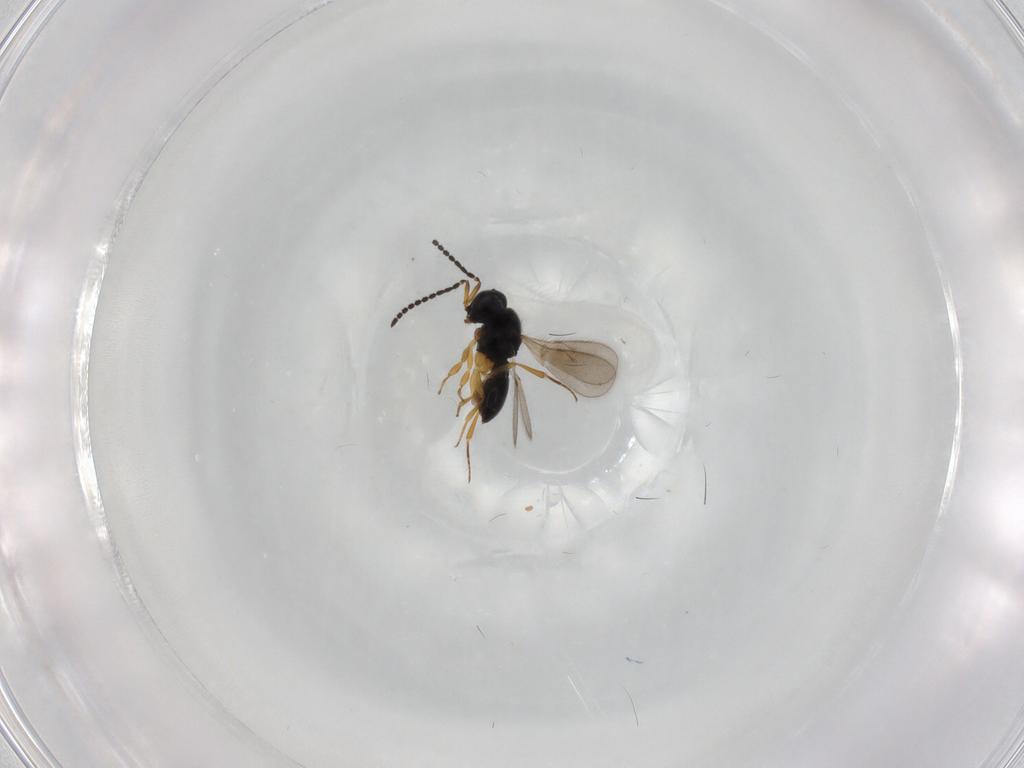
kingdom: Animalia
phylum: Arthropoda
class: Insecta
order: Hymenoptera
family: Scelionidae
